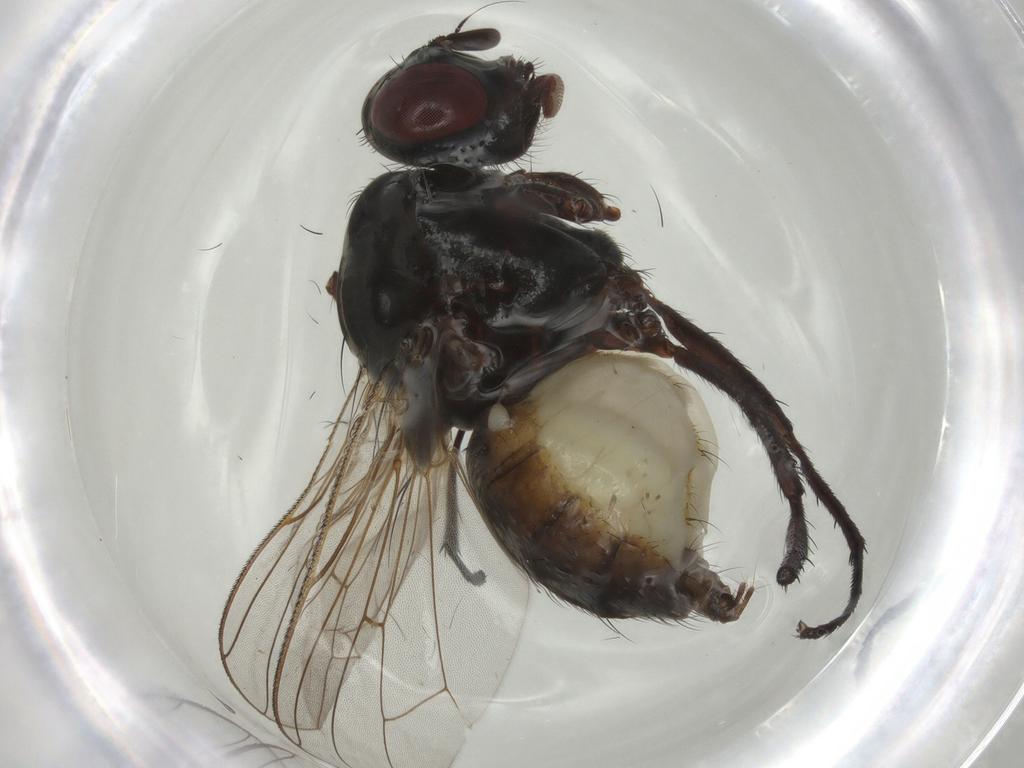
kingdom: Animalia
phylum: Arthropoda
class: Insecta
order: Diptera
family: Anthomyiidae
